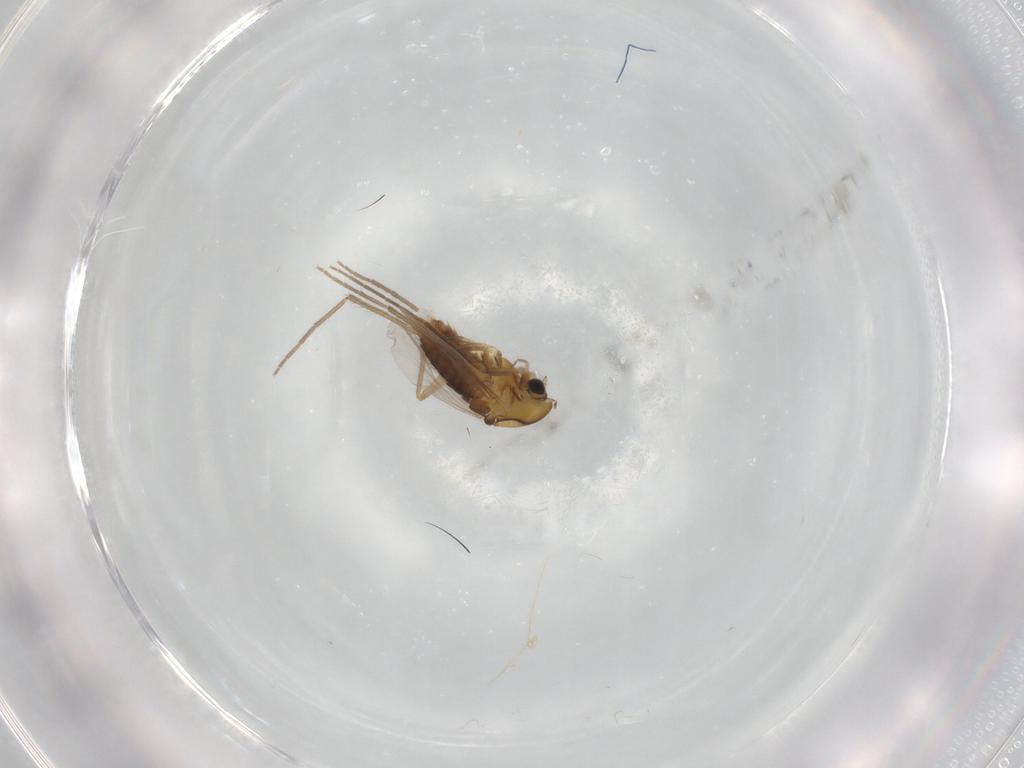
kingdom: Animalia
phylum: Arthropoda
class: Insecta
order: Diptera
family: Chironomidae
